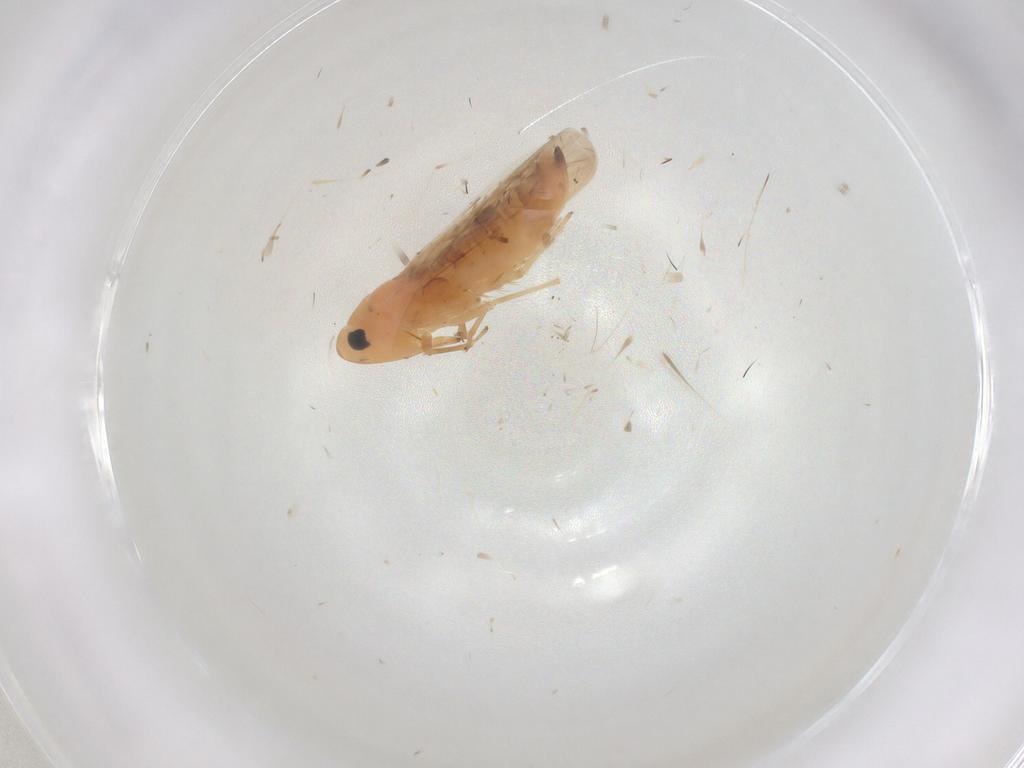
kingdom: Animalia
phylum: Arthropoda
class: Insecta
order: Hemiptera
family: Cicadellidae
